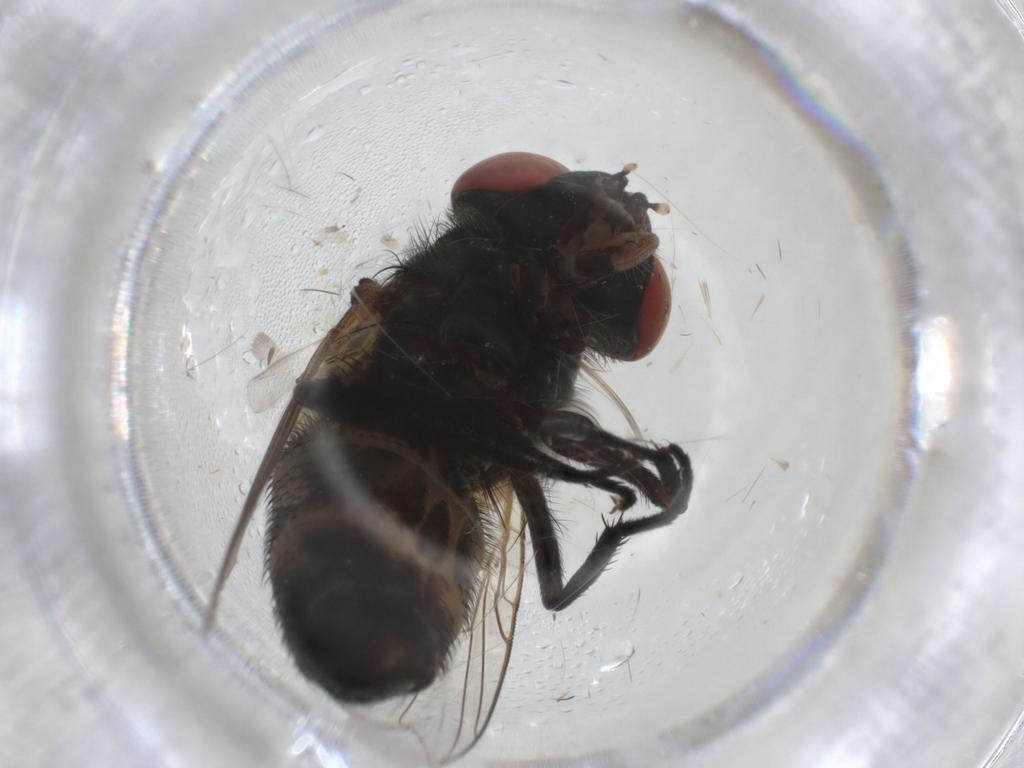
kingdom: Animalia
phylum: Arthropoda
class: Insecta
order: Diptera
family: Sarcophagidae
